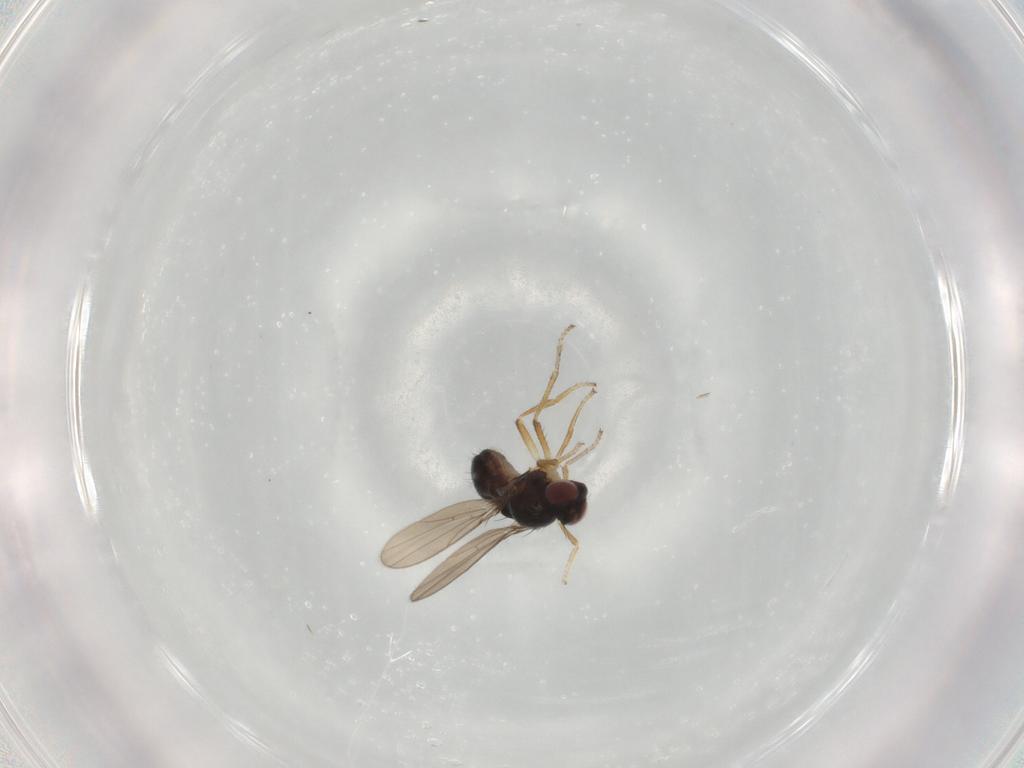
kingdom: Animalia
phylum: Arthropoda
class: Insecta
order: Diptera
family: Ephydridae
